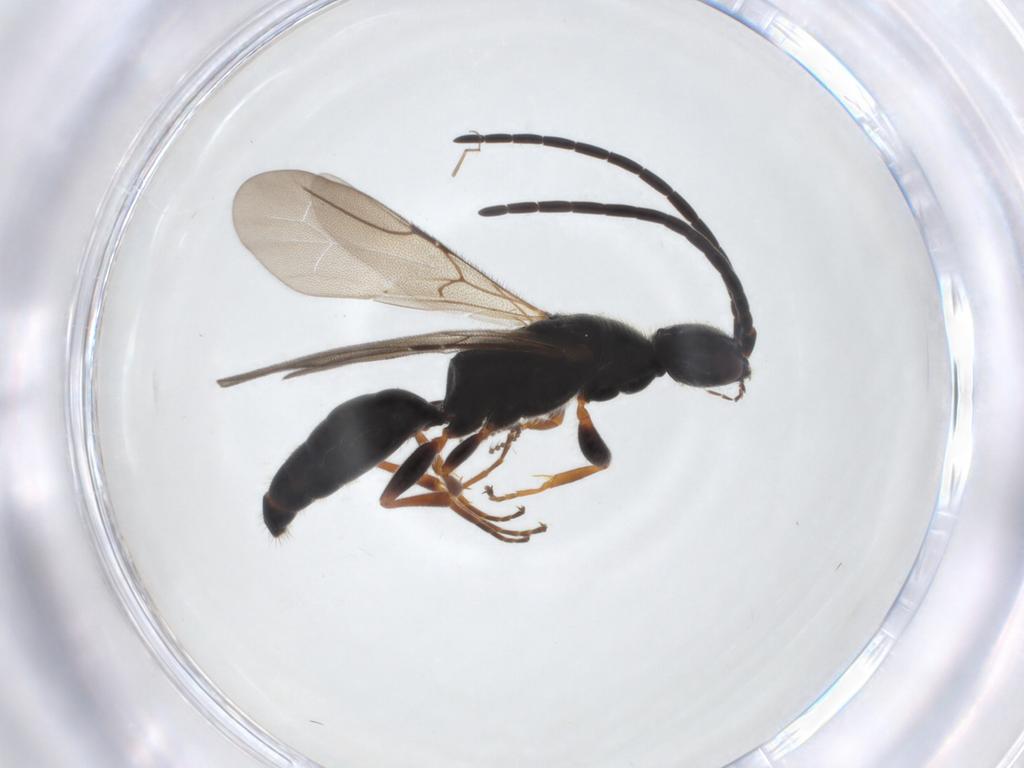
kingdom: Animalia
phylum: Arthropoda
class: Insecta
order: Hymenoptera
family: Bethylidae
